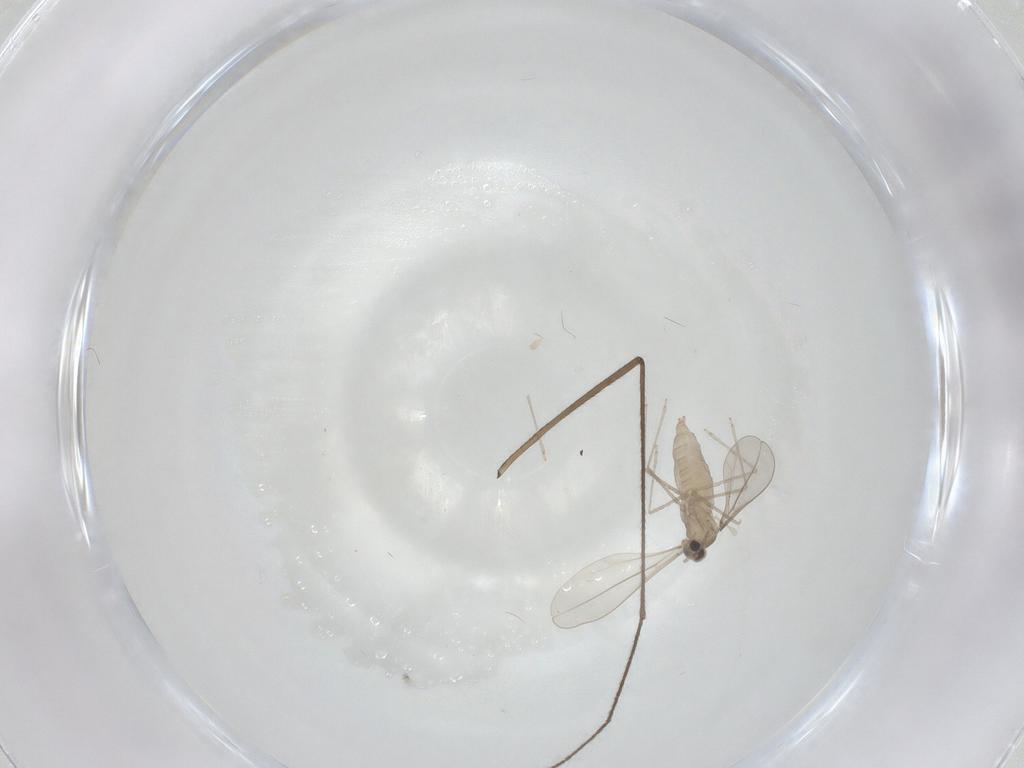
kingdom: Animalia
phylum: Arthropoda
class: Insecta
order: Diptera
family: Cecidomyiidae
